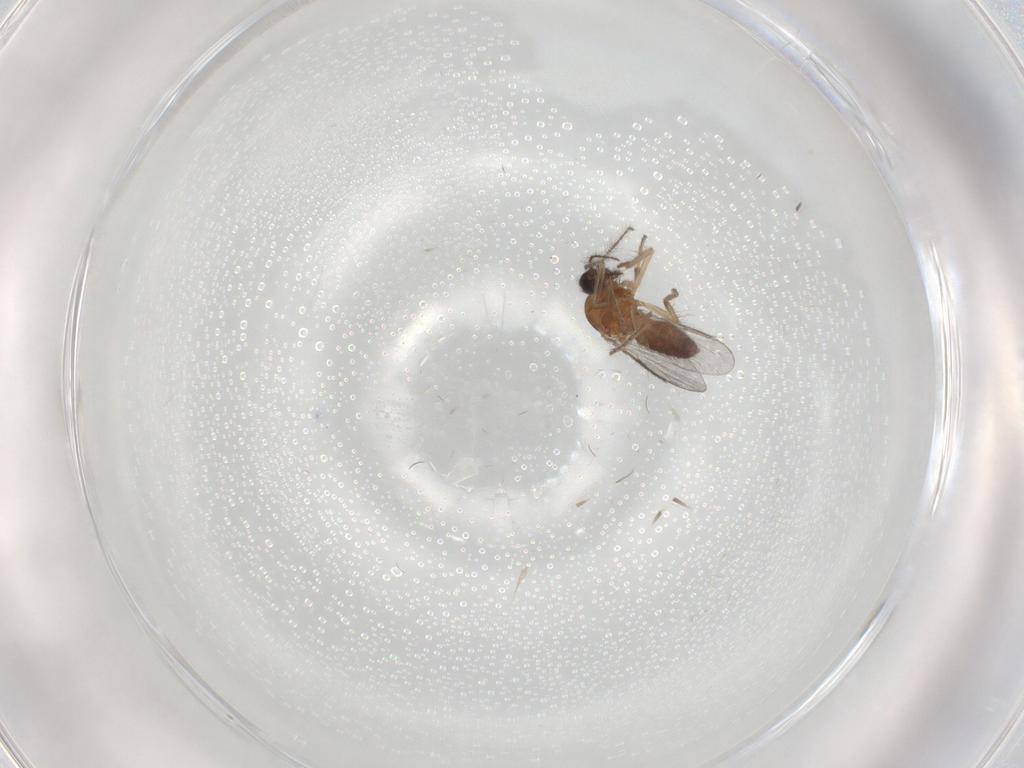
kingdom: Animalia
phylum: Arthropoda
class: Insecta
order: Diptera
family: Ceratopogonidae
